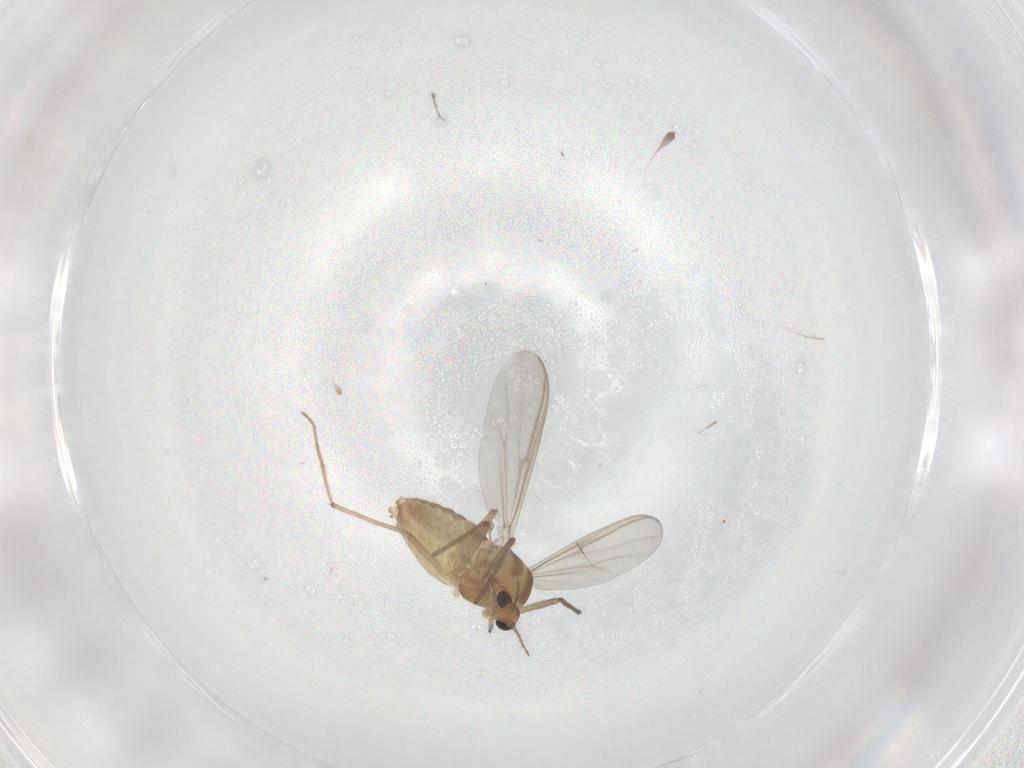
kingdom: Animalia
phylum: Arthropoda
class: Insecta
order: Diptera
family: Chironomidae
